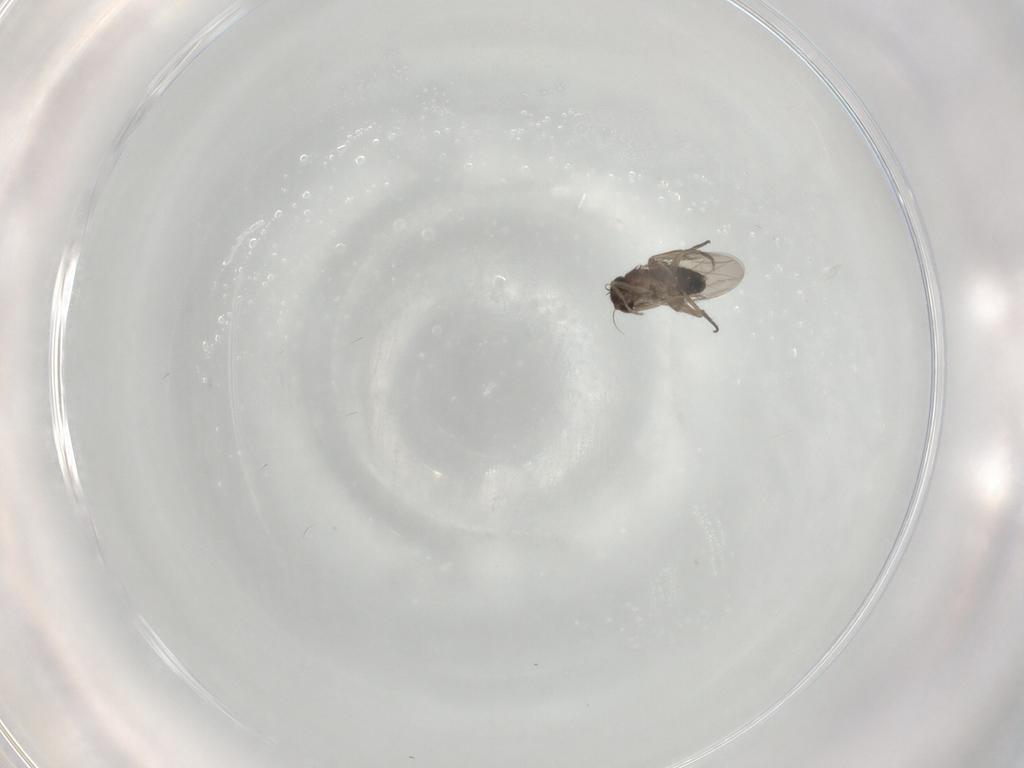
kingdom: Animalia
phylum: Arthropoda
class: Insecta
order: Diptera
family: Phoridae
